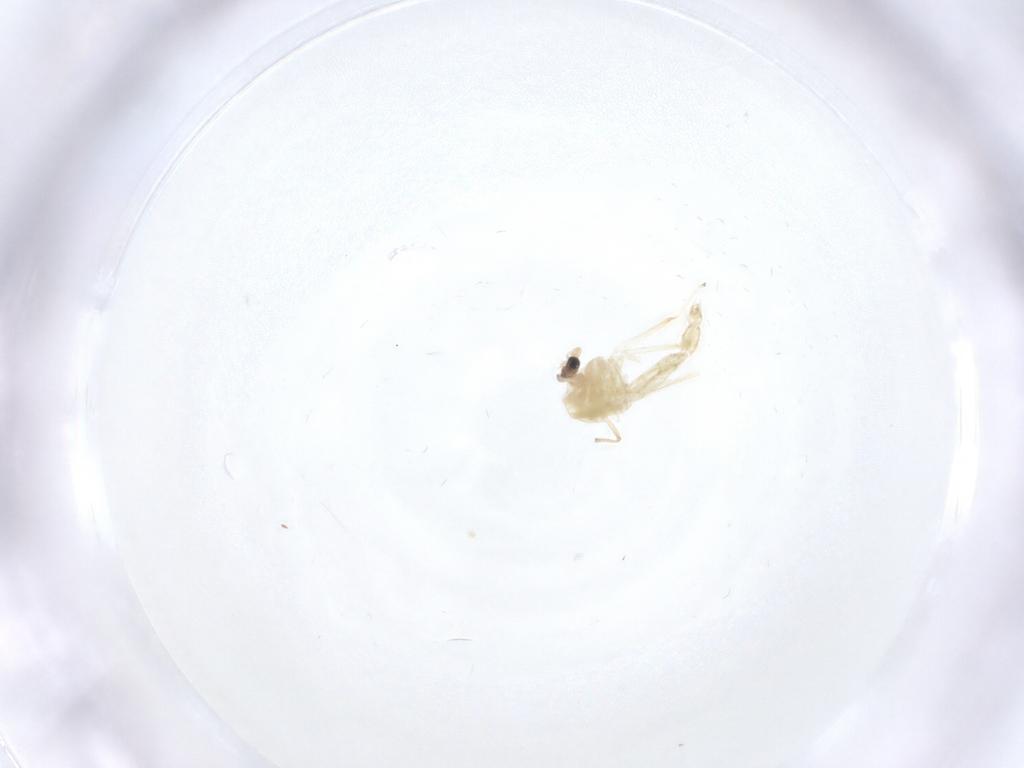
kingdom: Animalia
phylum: Arthropoda
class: Insecta
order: Diptera
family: Chironomidae
